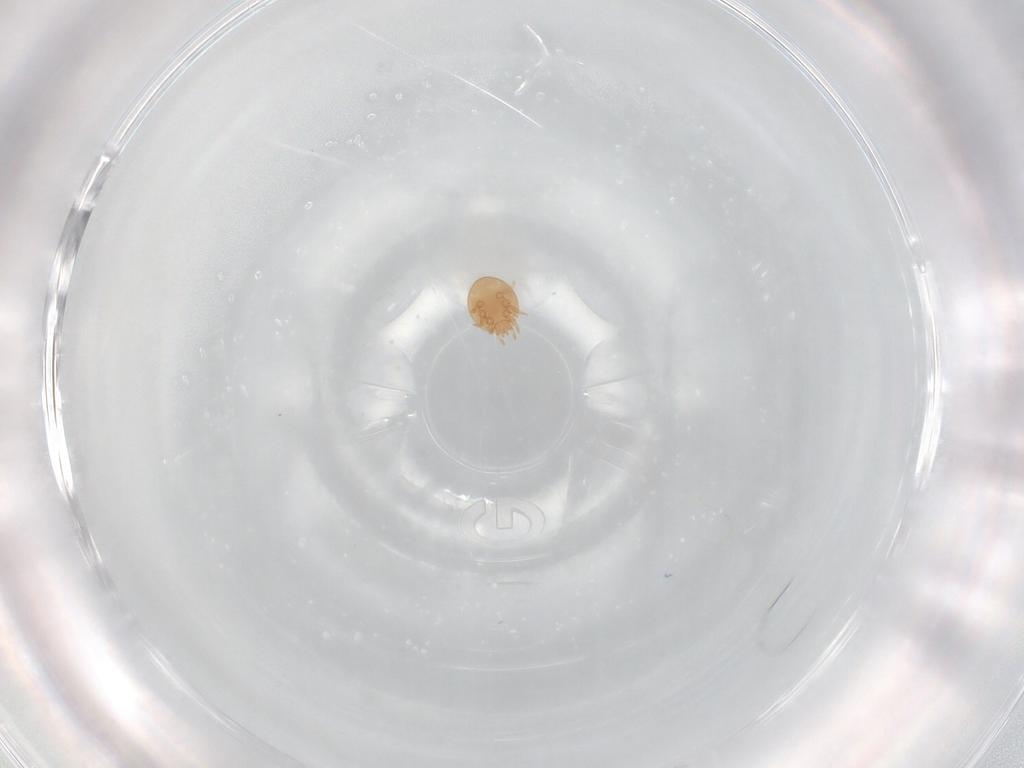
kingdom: Animalia
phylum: Arthropoda
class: Arachnida
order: Mesostigmata
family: Trematuridae
